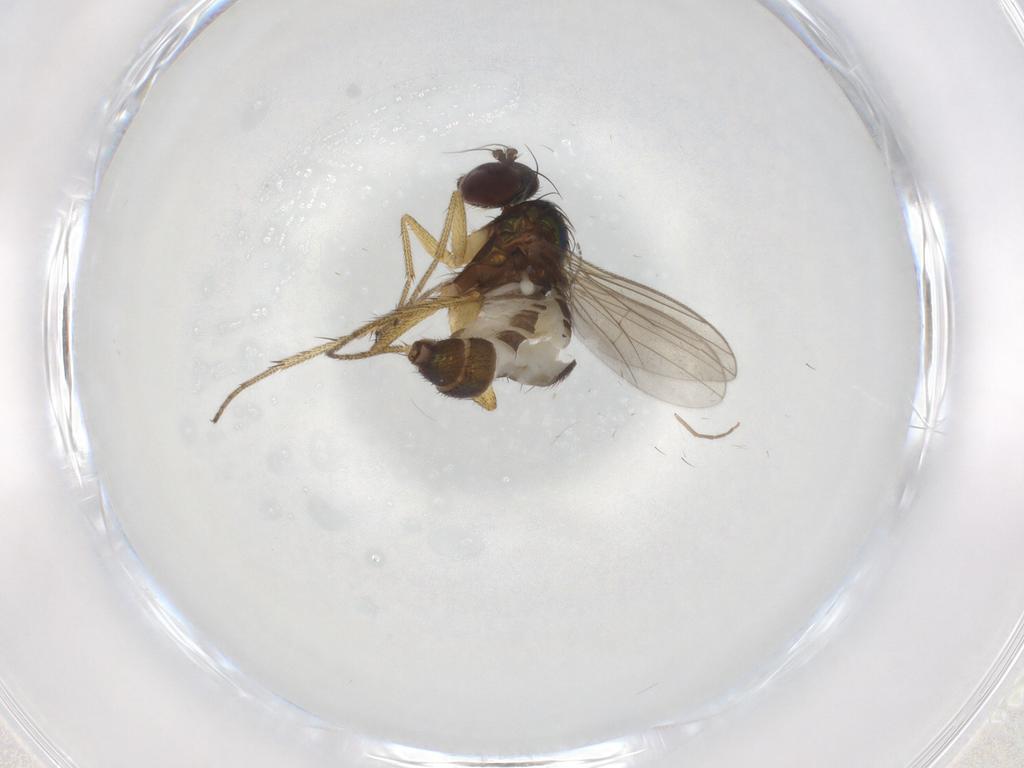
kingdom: Animalia
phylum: Arthropoda
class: Insecta
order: Diptera
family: Dolichopodidae
